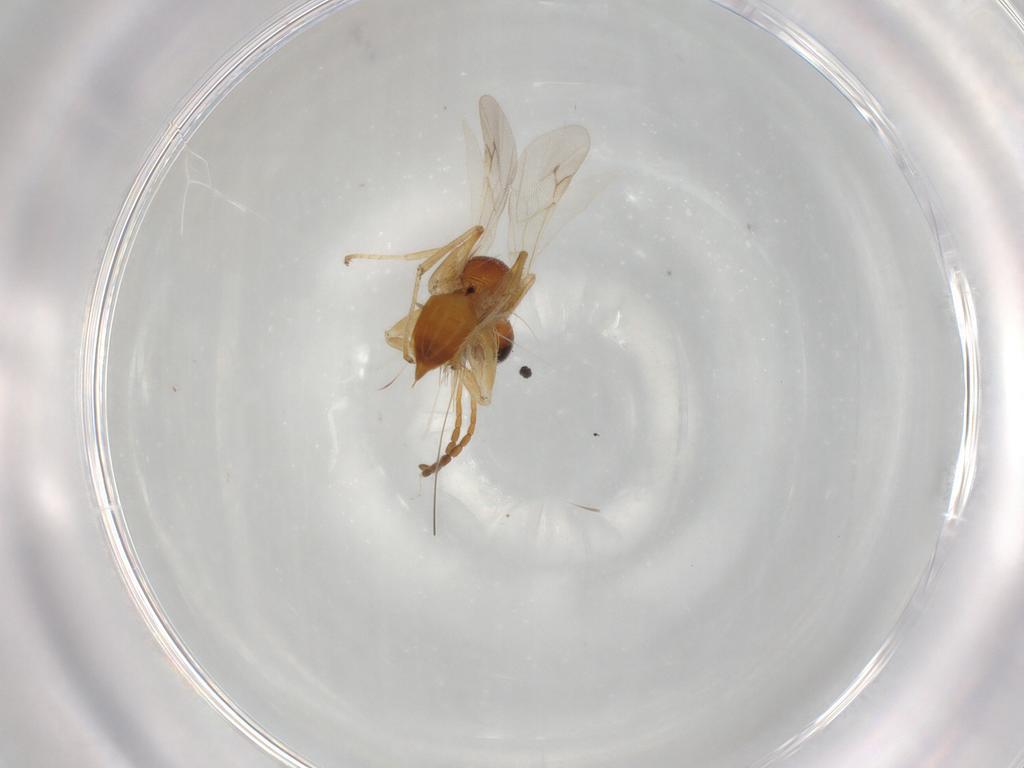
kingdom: Animalia
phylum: Arthropoda
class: Insecta
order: Hymenoptera
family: Dryinidae
